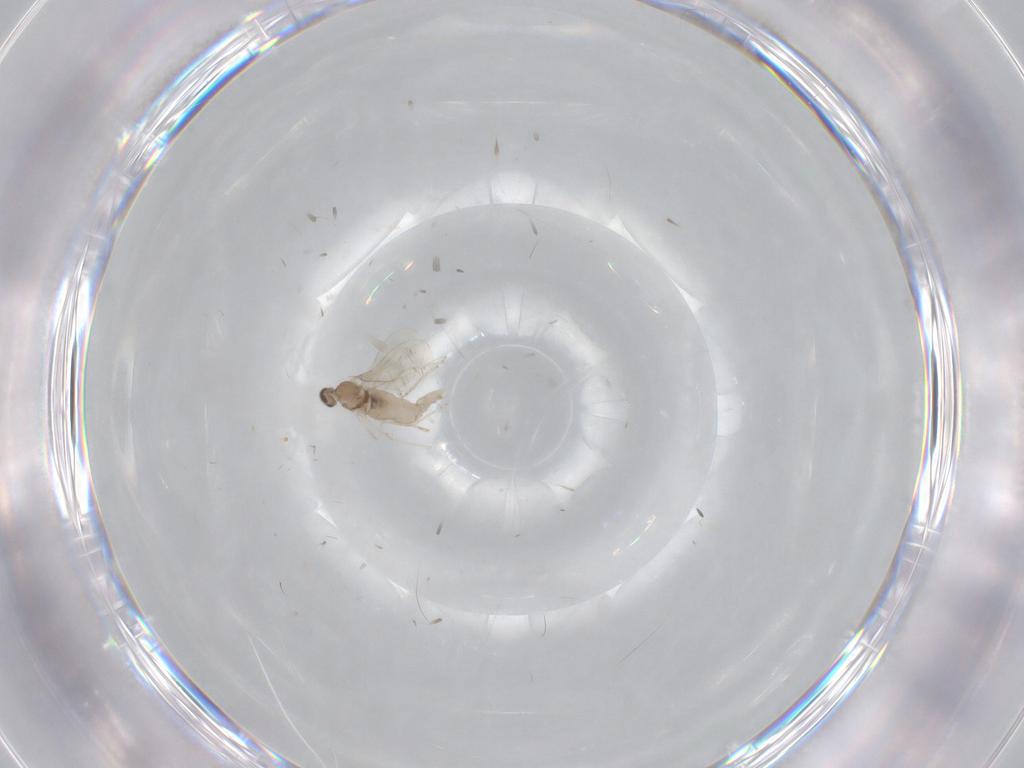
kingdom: Animalia
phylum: Arthropoda
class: Insecta
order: Diptera
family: Cecidomyiidae
